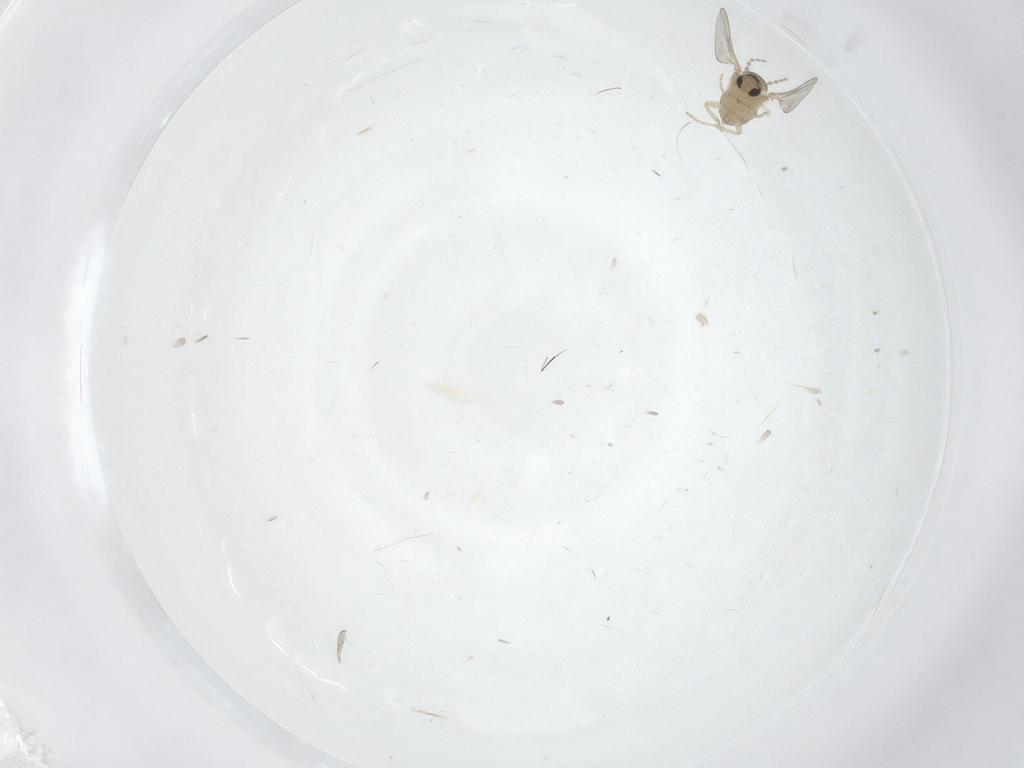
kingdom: Animalia
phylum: Arthropoda
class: Insecta
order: Diptera
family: Cecidomyiidae
